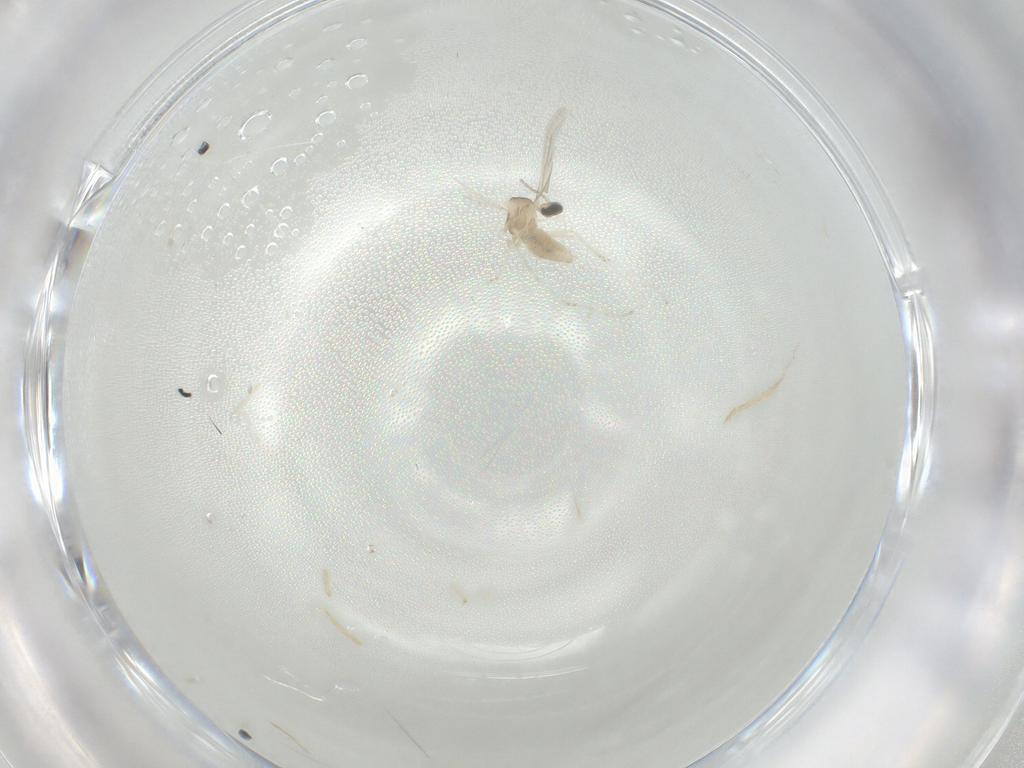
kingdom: Animalia
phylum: Arthropoda
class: Insecta
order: Diptera
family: Cecidomyiidae
